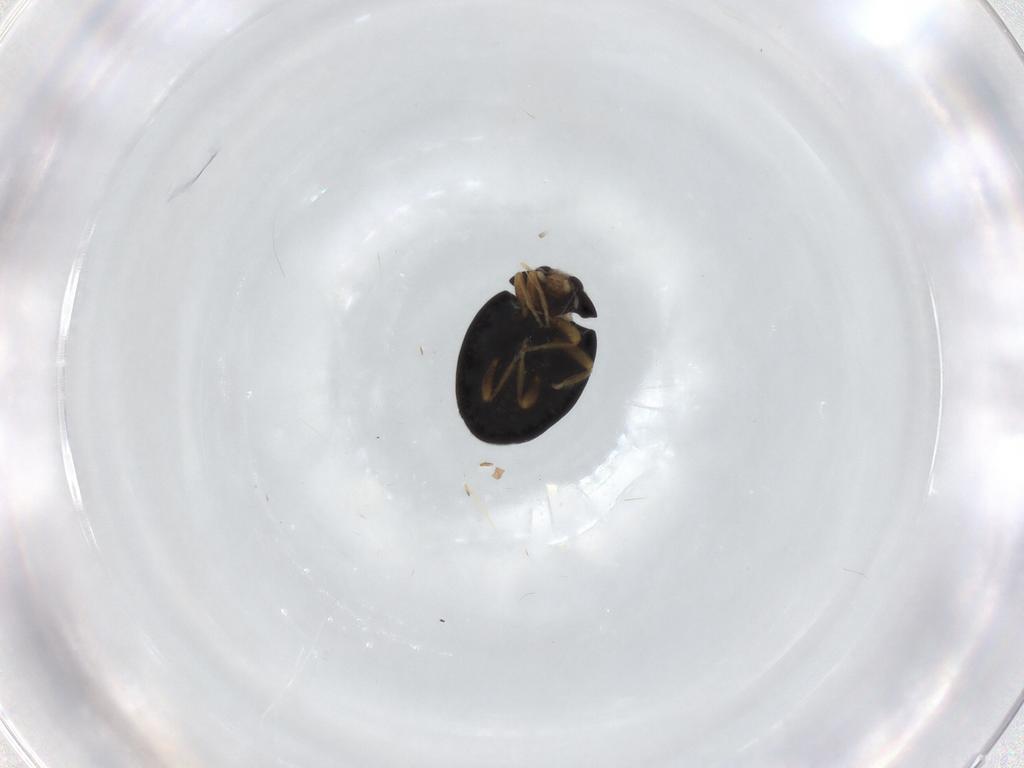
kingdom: Animalia
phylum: Arthropoda
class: Insecta
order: Coleoptera
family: Coccinellidae
